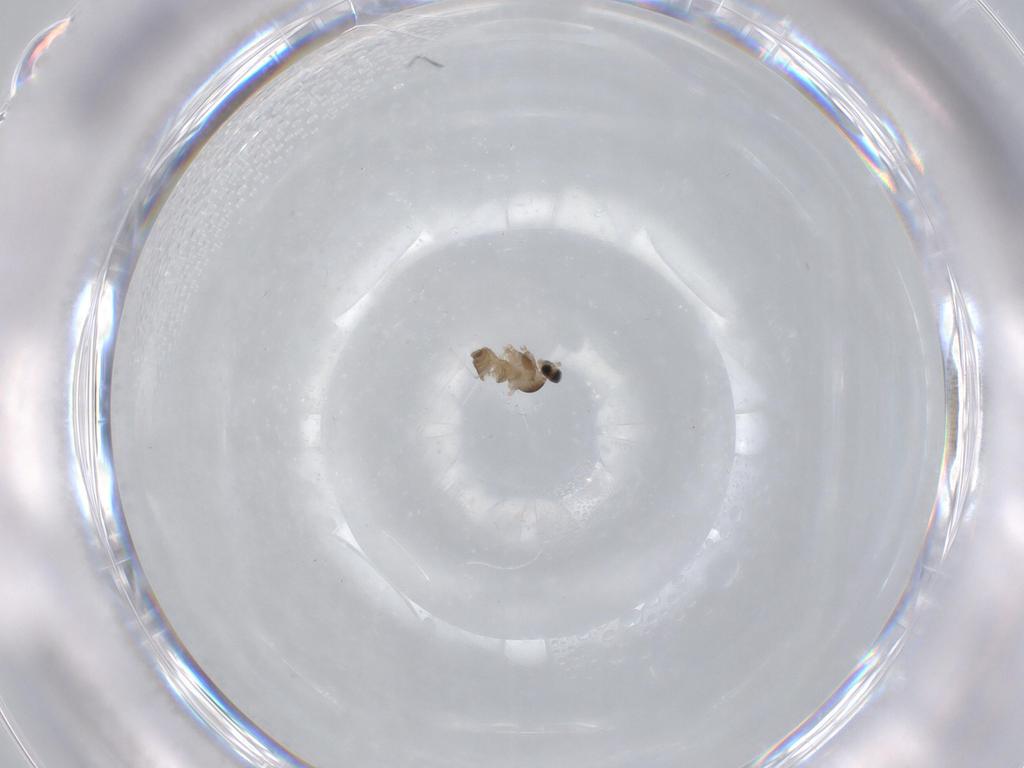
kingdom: Animalia
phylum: Arthropoda
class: Insecta
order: Diptera
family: Cecidomyiidae
